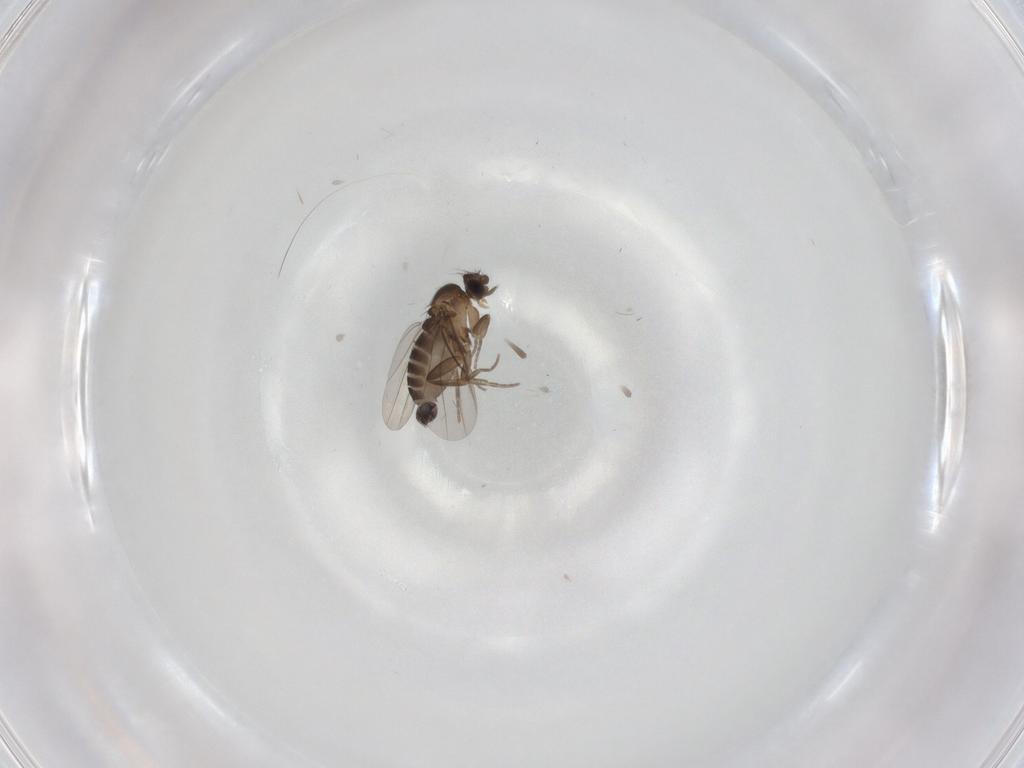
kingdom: Animalia
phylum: Arthropoda
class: Insecta
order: Diptera
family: Phoridae
